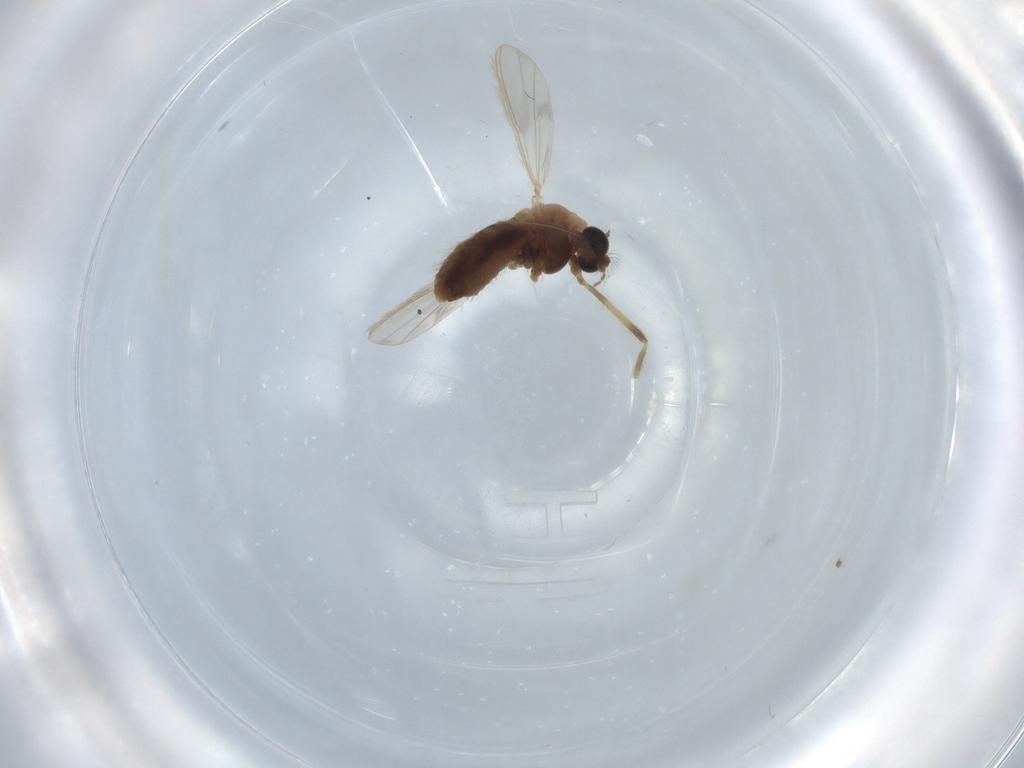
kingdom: Animalia
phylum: Arthropoda
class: Insecta
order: Diptera
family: Chironomidae
